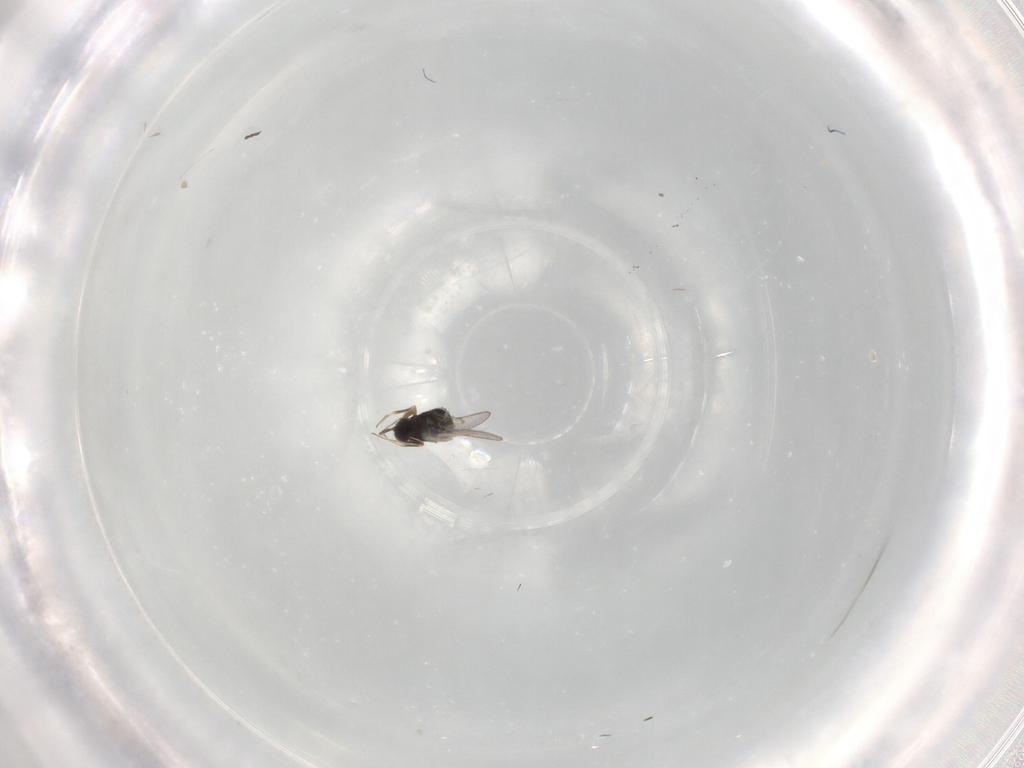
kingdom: Animalia
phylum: Arthropoda
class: Insecta
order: Hymenoptera
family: Scelionidae
